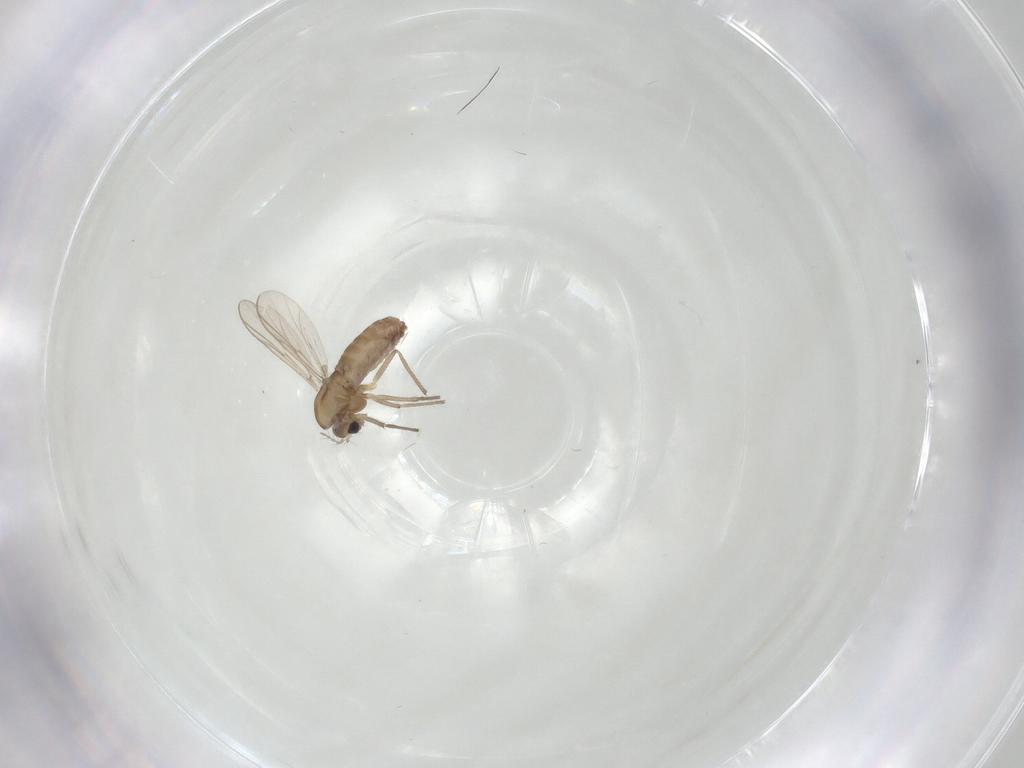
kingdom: Animalia
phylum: Arthropoda
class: Insecta
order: Diptera
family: Chironomidae
